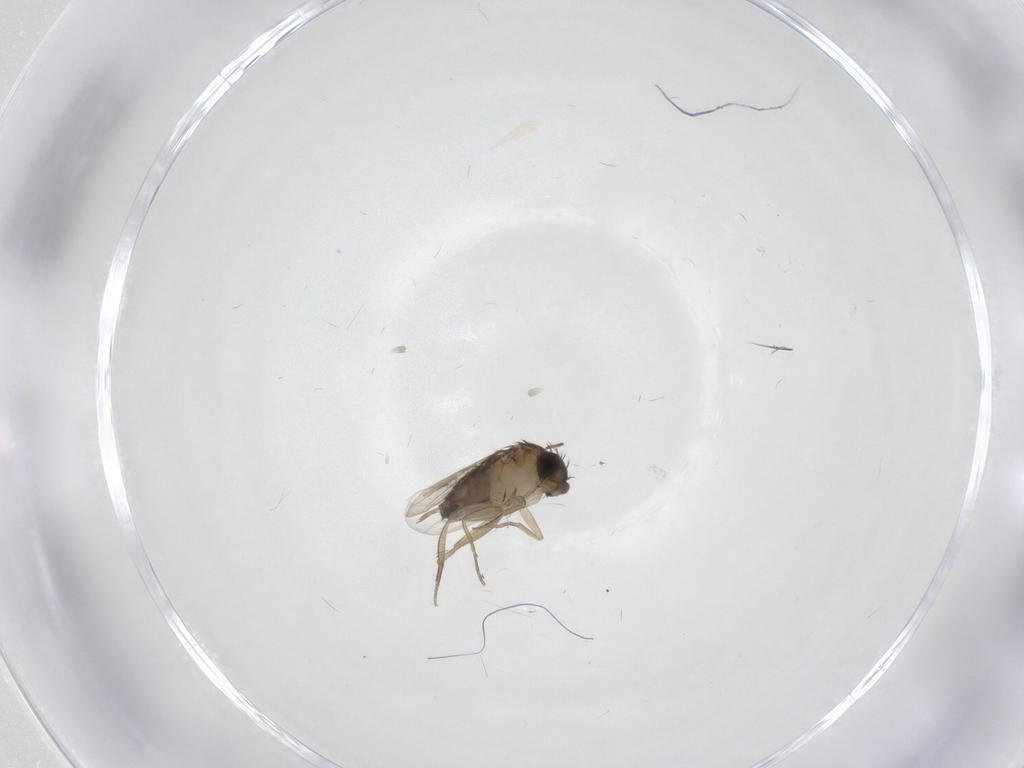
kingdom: Animalia
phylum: Arthropoda
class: Insecta
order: Diptera
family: Chironomidae
